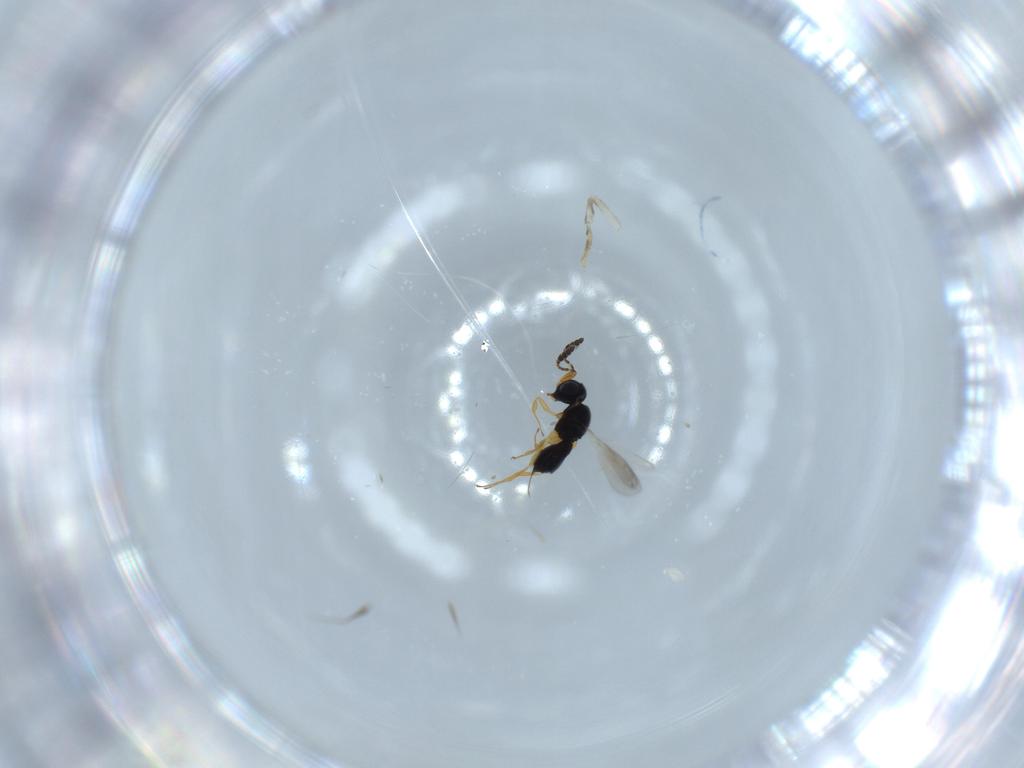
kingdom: Animalia
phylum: Arthropoda
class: Insecta
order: Hymenoptera
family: Scelionidae
